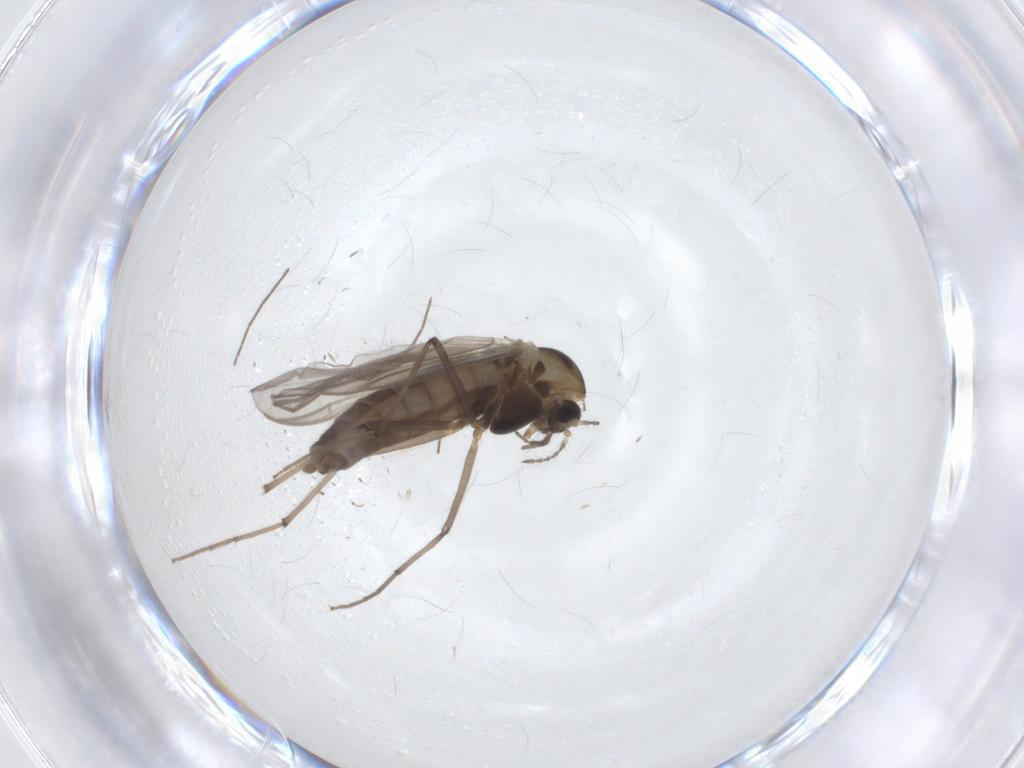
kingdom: Animalia
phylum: Arthropoda
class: Insecta
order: Diptera
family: Chironomidae
